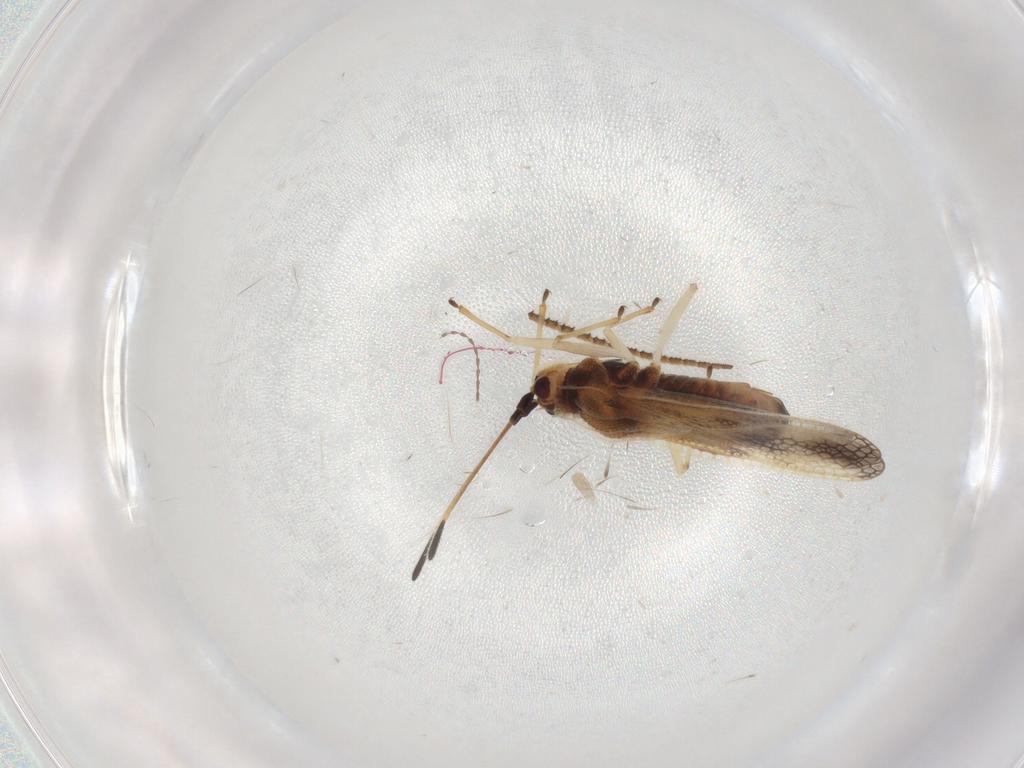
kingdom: Animalia
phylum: Arthropoda
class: Insecta
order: Hemiptera
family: Tingidae
